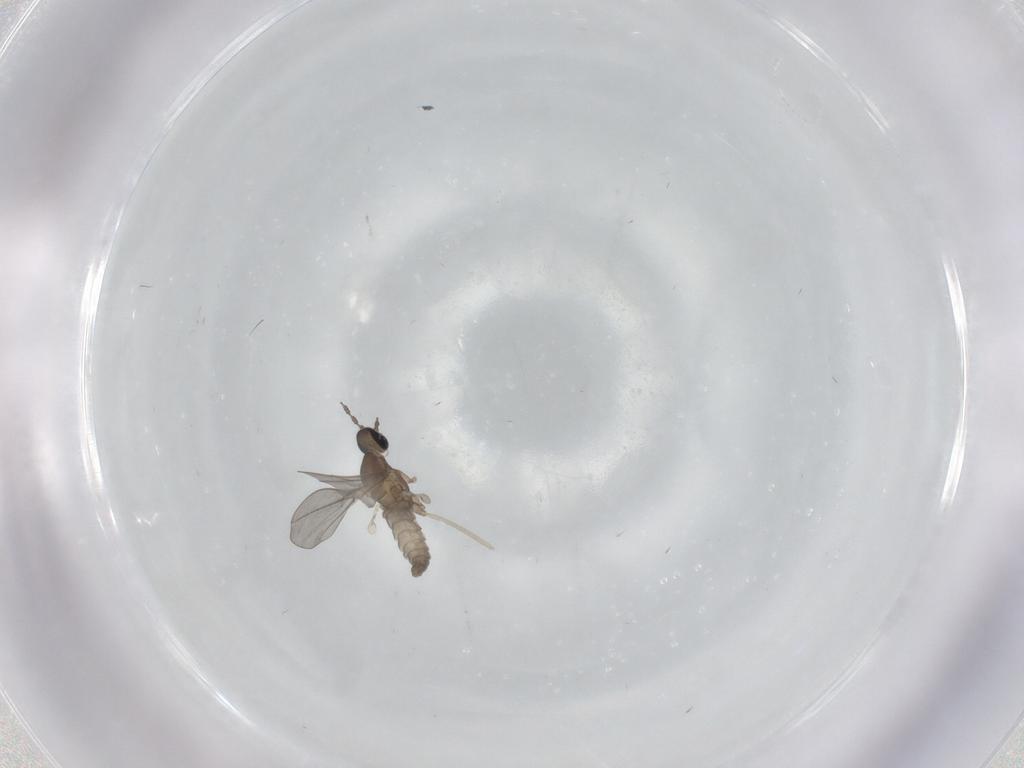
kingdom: Animalia
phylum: Arthropoda
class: Insecta
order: Diptera
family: Cecidomyiidae
